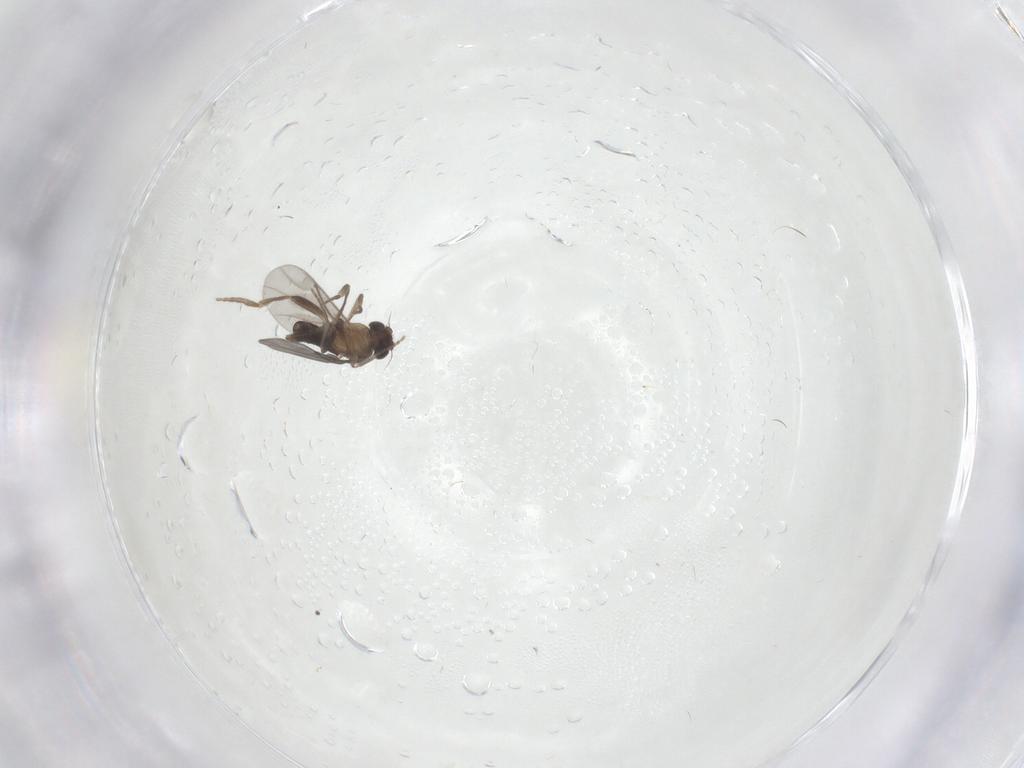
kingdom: Animalia
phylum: Arthropoda
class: Insecta
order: Diptera
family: Phoridae
